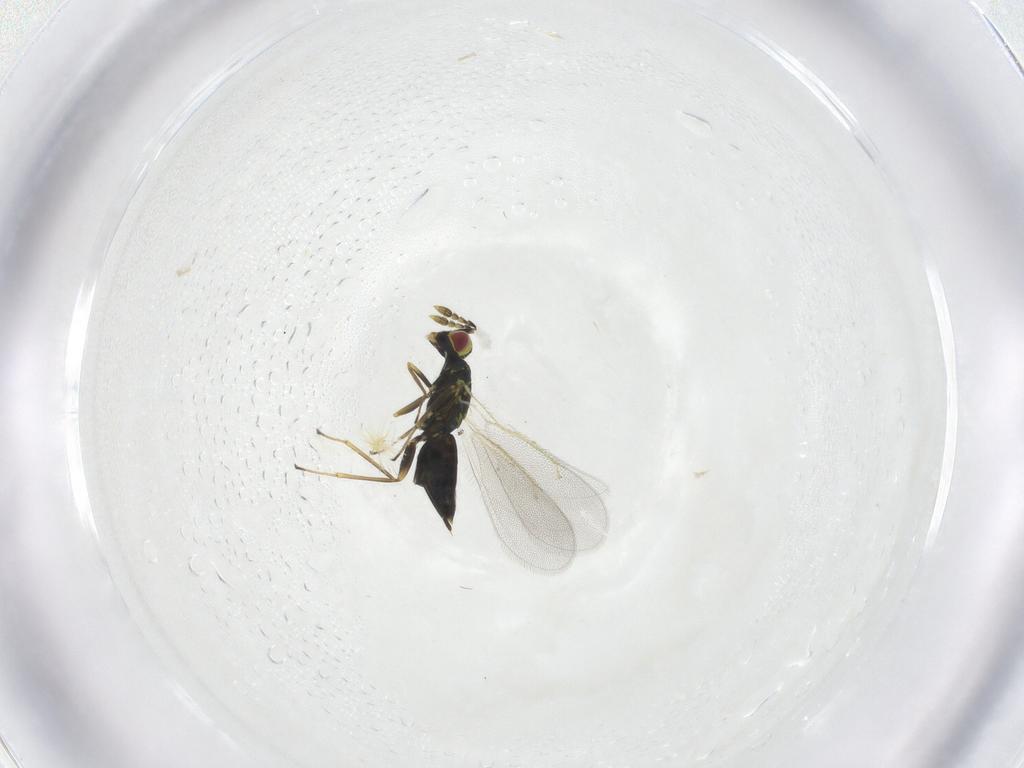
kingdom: Animalia
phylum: Arthropoda
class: Insecta
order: Hymenoptera
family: Eulophidae
